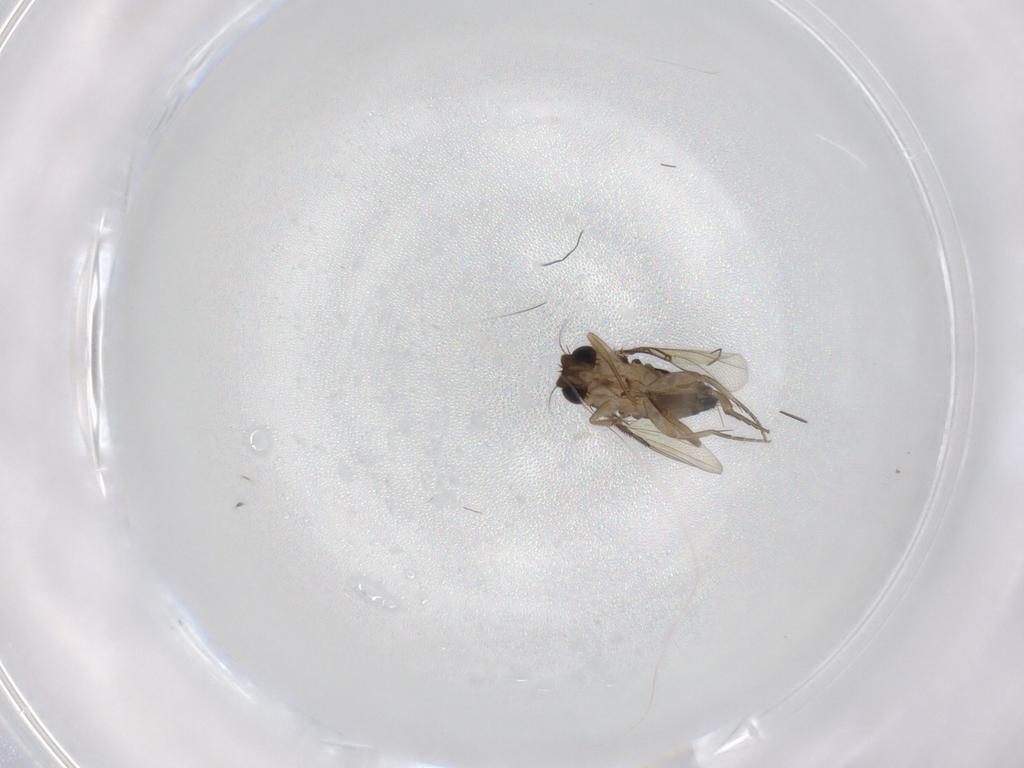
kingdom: Animalia
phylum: Arthropoda
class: Insecta
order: Diptera
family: Phoridae
